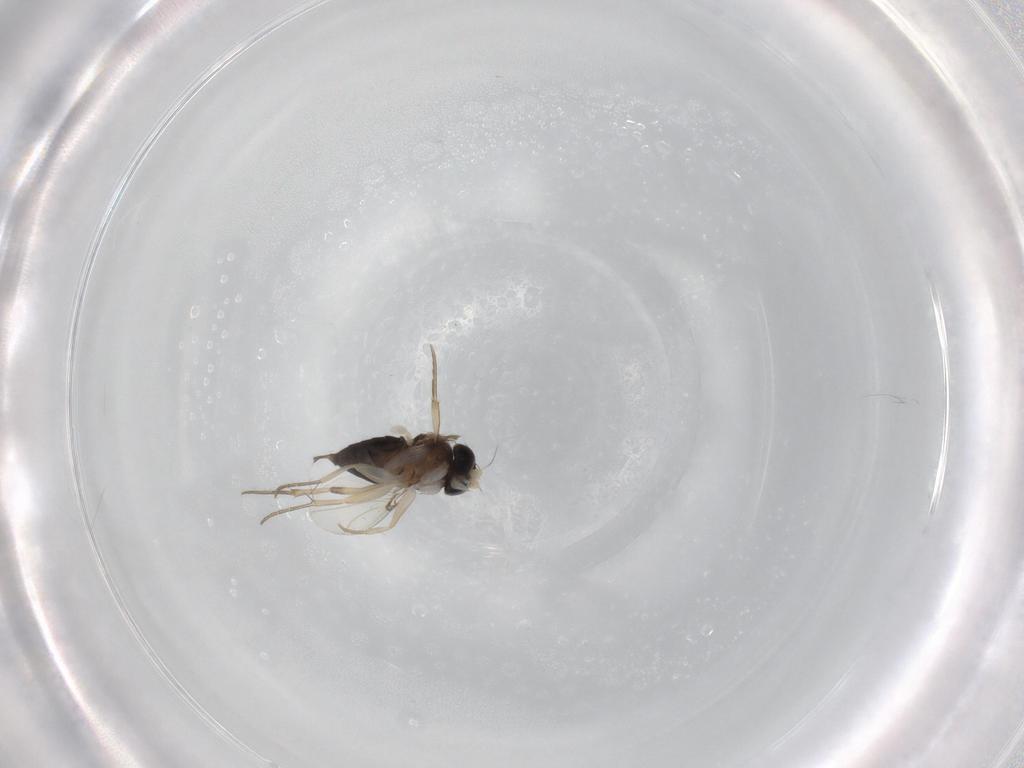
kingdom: Animalia
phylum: Arthropoda
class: Insecta
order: Diptera
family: Phoridae
